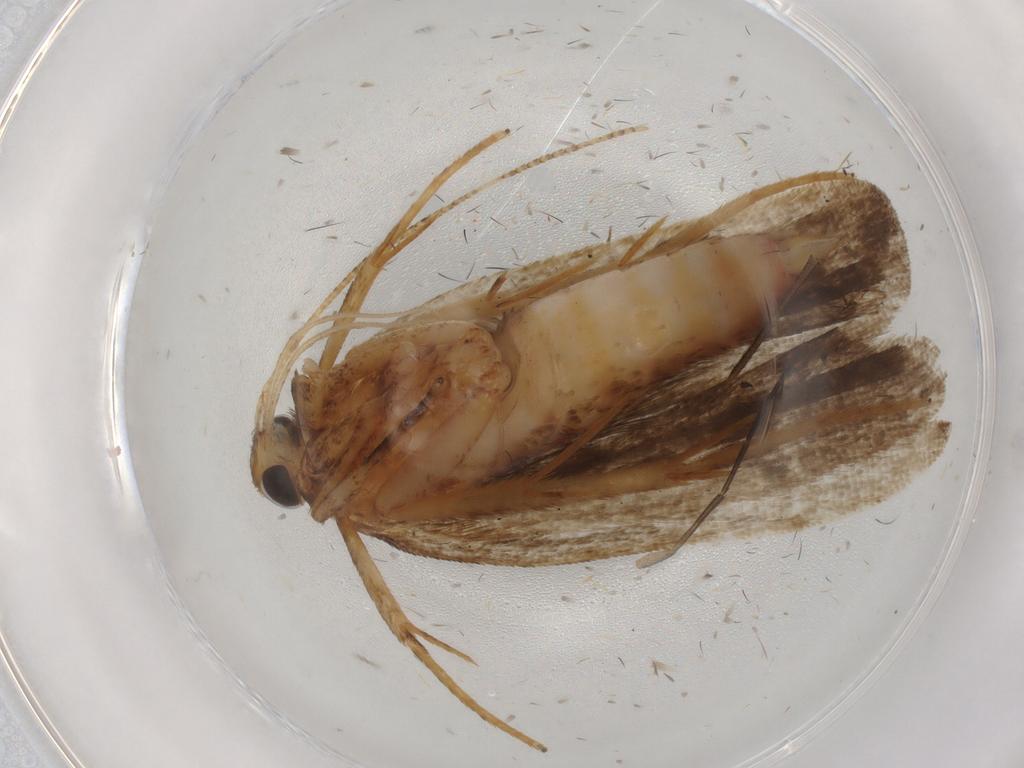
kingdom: Animalia
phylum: Arthropoda
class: Insecta
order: Lepidoptera
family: Autostichidae
